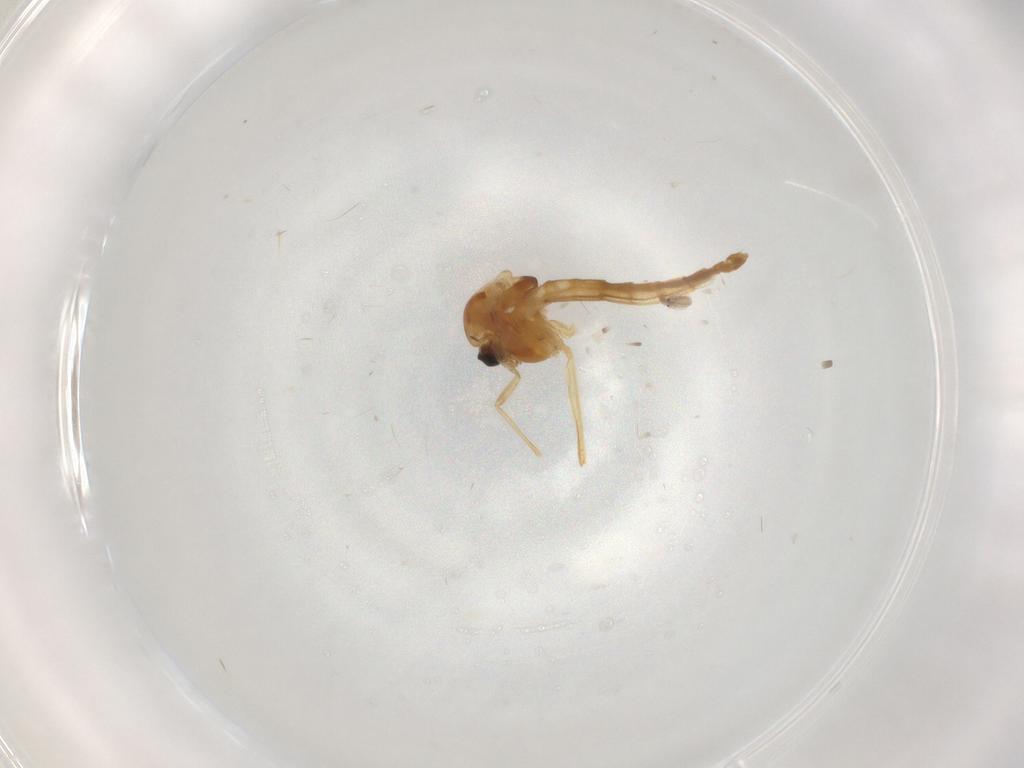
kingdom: Animalia
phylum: Arthropoda
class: Insecta
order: Diptera
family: Chironomidae
